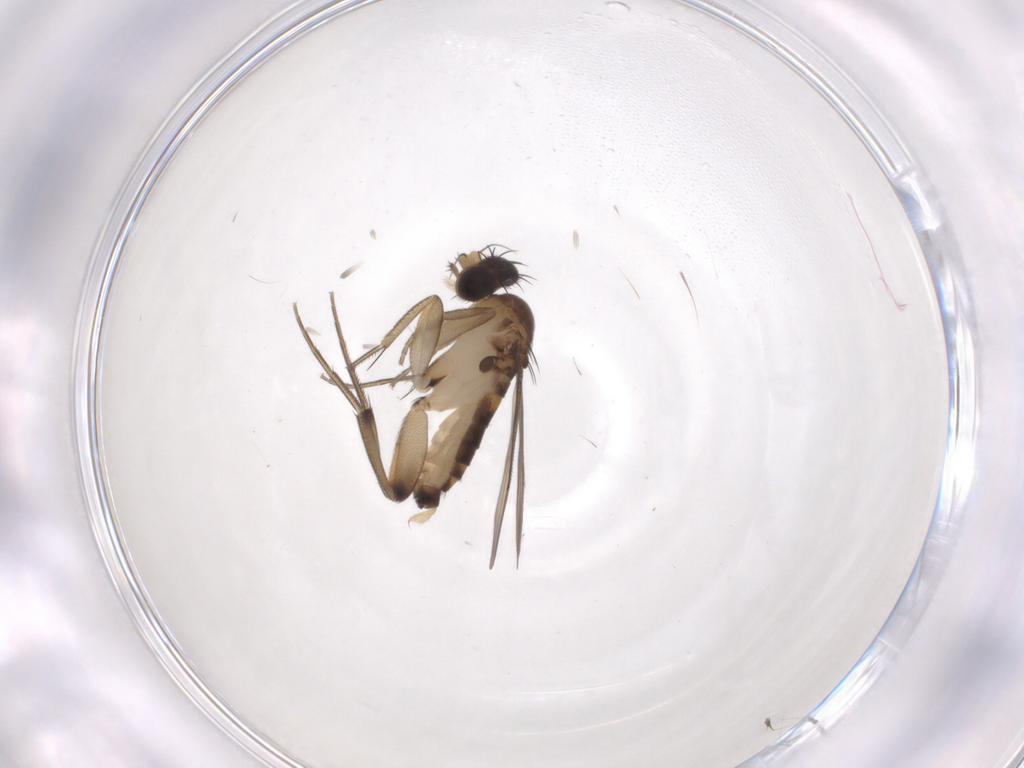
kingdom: Animalia
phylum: Arthropoda
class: Insecta
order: Diptera
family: Phoridae
